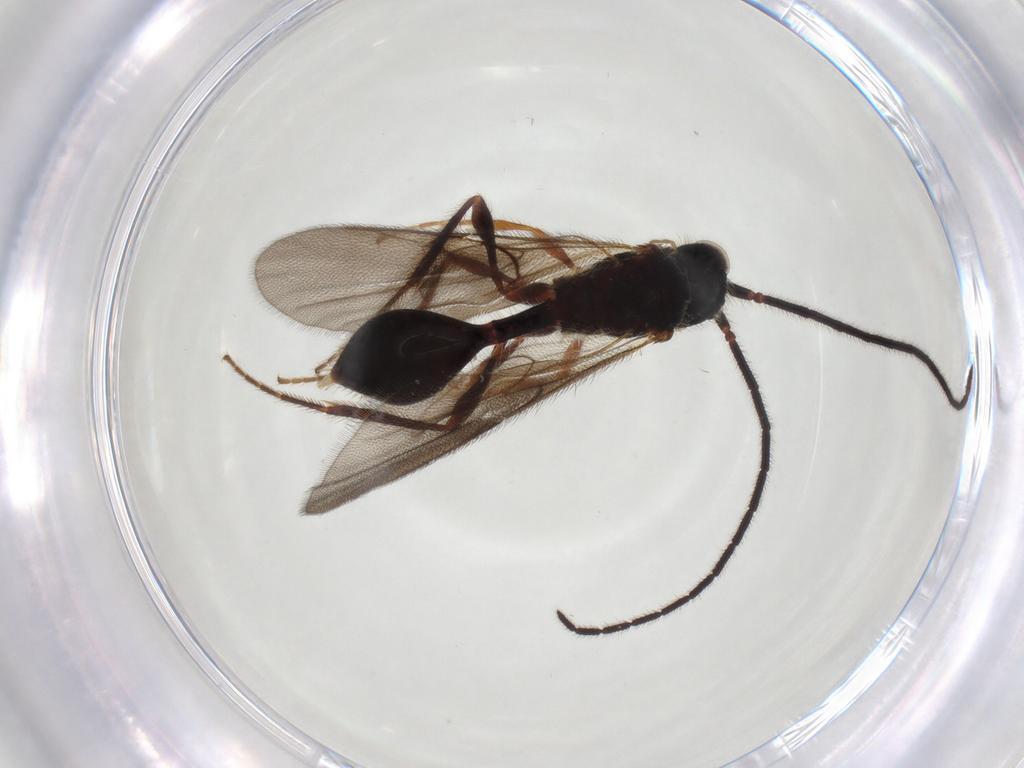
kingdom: Animalia
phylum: Arthropoda
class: Insecta
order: Hymenoptera
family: Diapriidae
